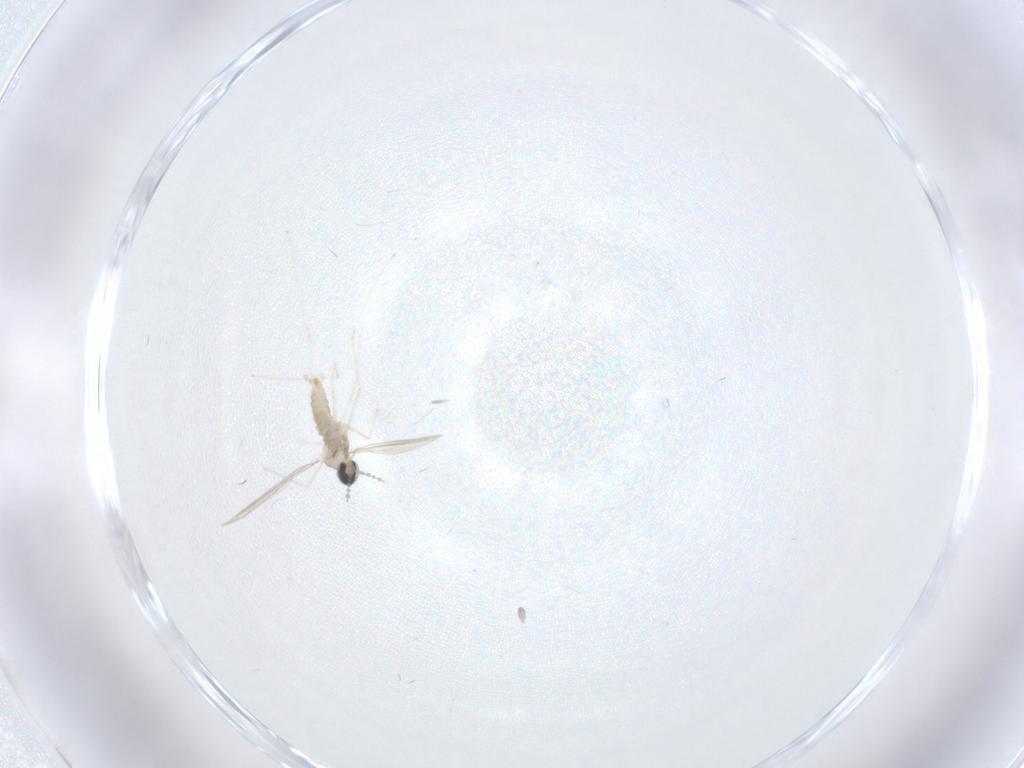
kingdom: Animalia
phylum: Arthropoda
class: Insecta
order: Diptera
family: Cecidomyiidae
